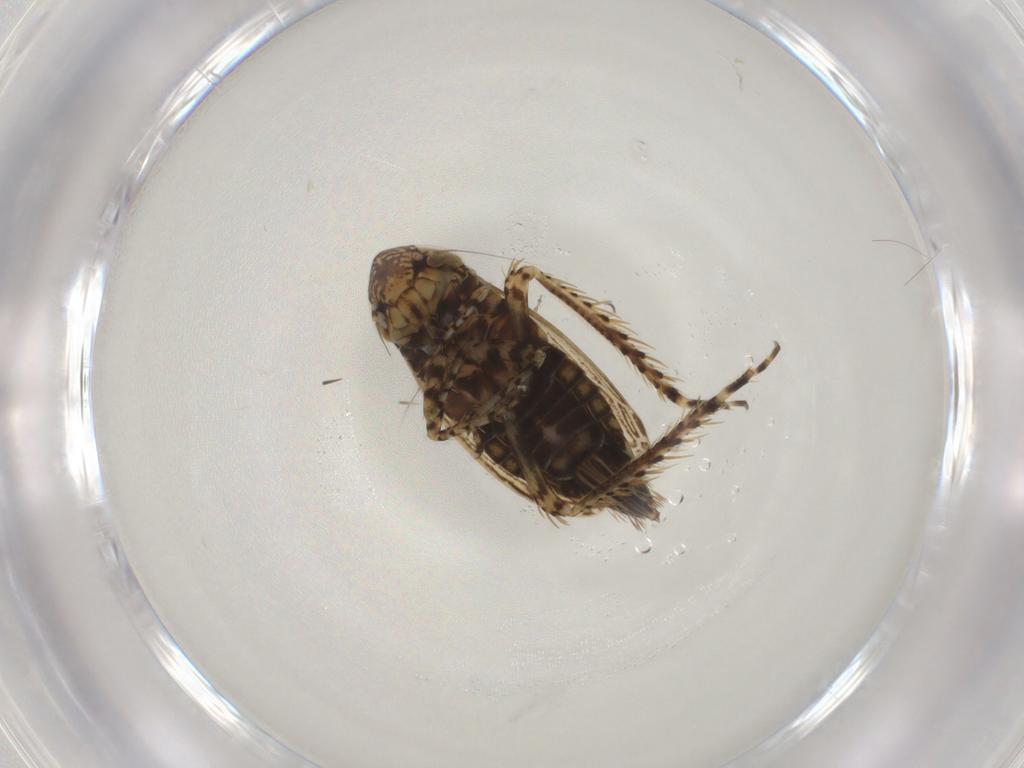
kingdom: Animalia
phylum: Arthropoda
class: Insecta
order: Hemiptera
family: Cicadellidae
